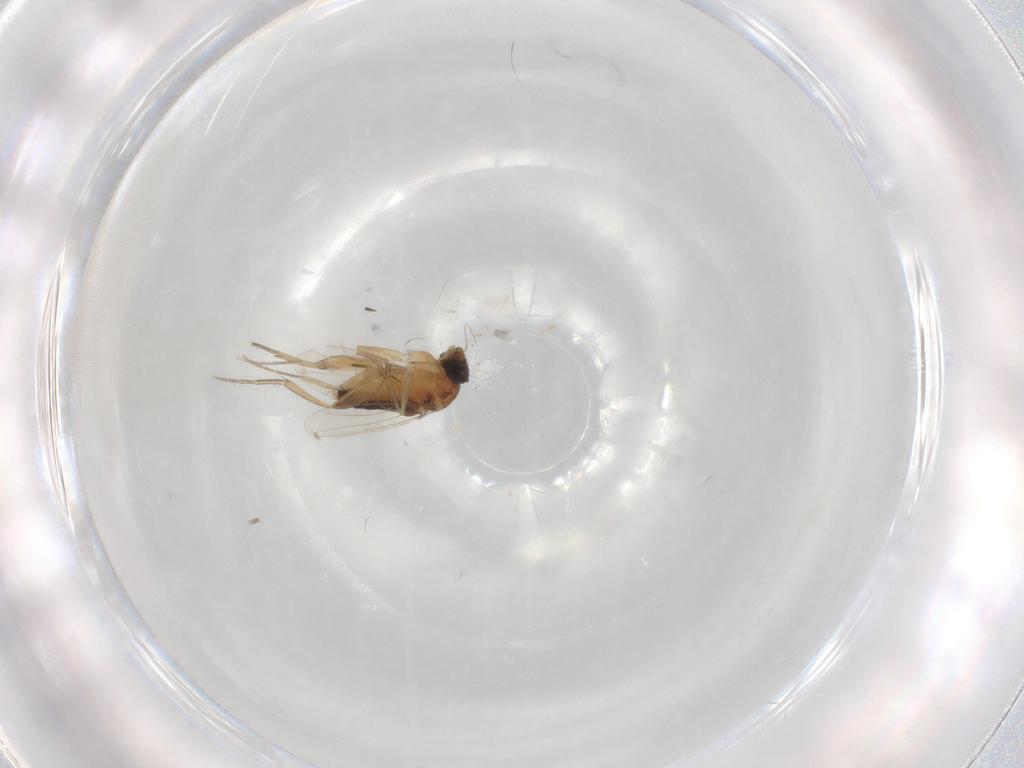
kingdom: Animalia
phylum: Arthropoda
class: Insecta
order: Diptera
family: Phoridae
